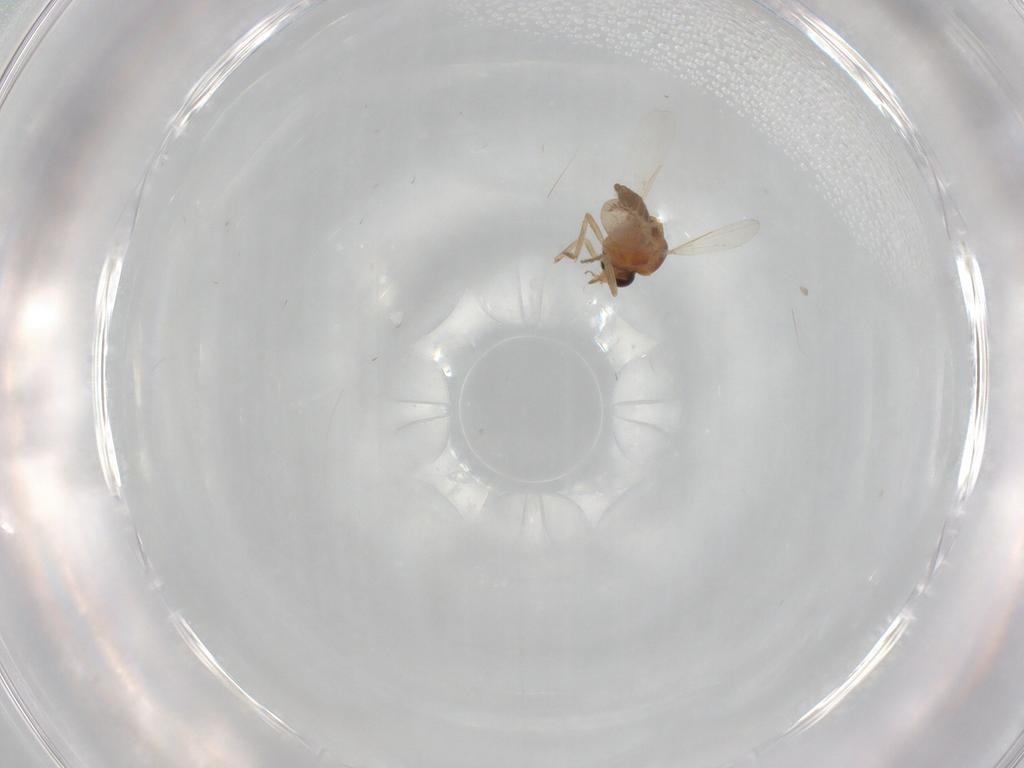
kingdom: Animalia
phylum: Arthropoda
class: Insecta
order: Diptera
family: Ceratopogonidae
